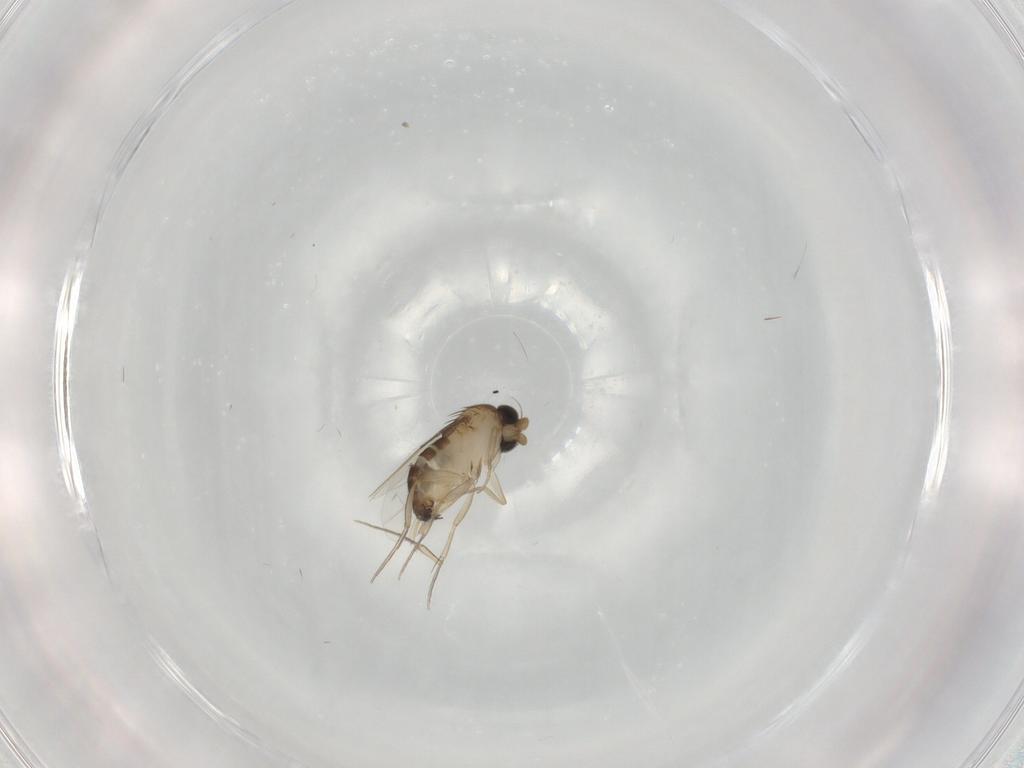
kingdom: Animalia
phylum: Arthropoda
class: Insecta
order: Diptera
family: Phoridae
